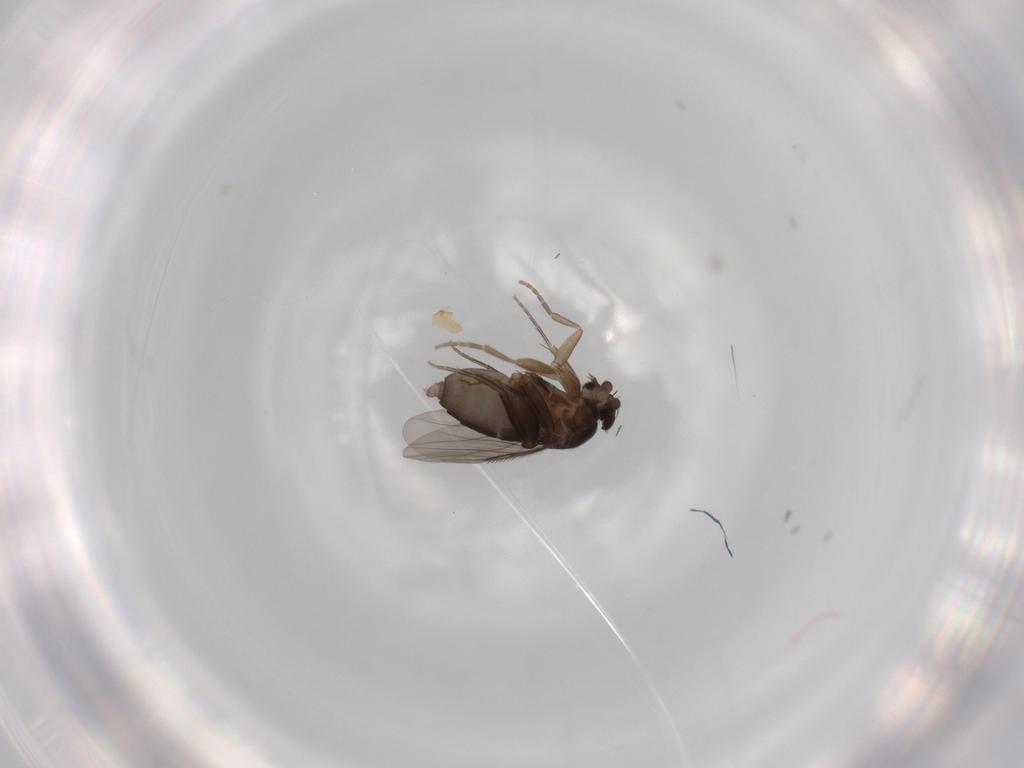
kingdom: Animalia
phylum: Arthropoda
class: Insecta
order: Diptera
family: Phoridae
